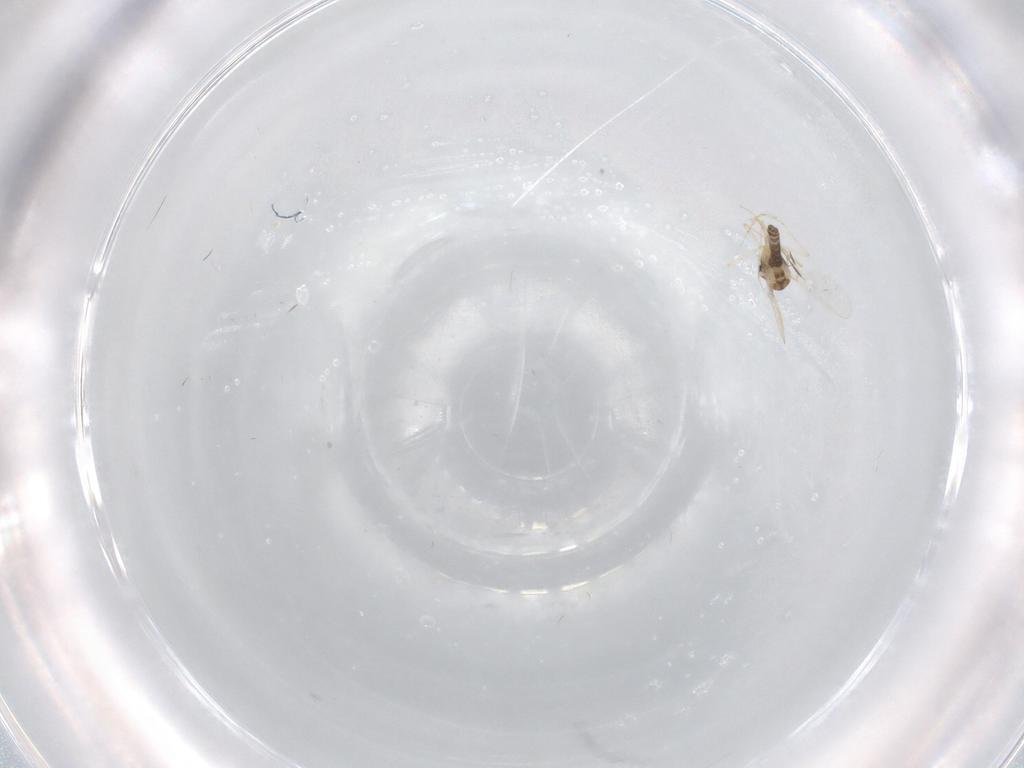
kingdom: Animalia
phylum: Arthropoda
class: Insecta
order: Diptera
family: Chironomidae
